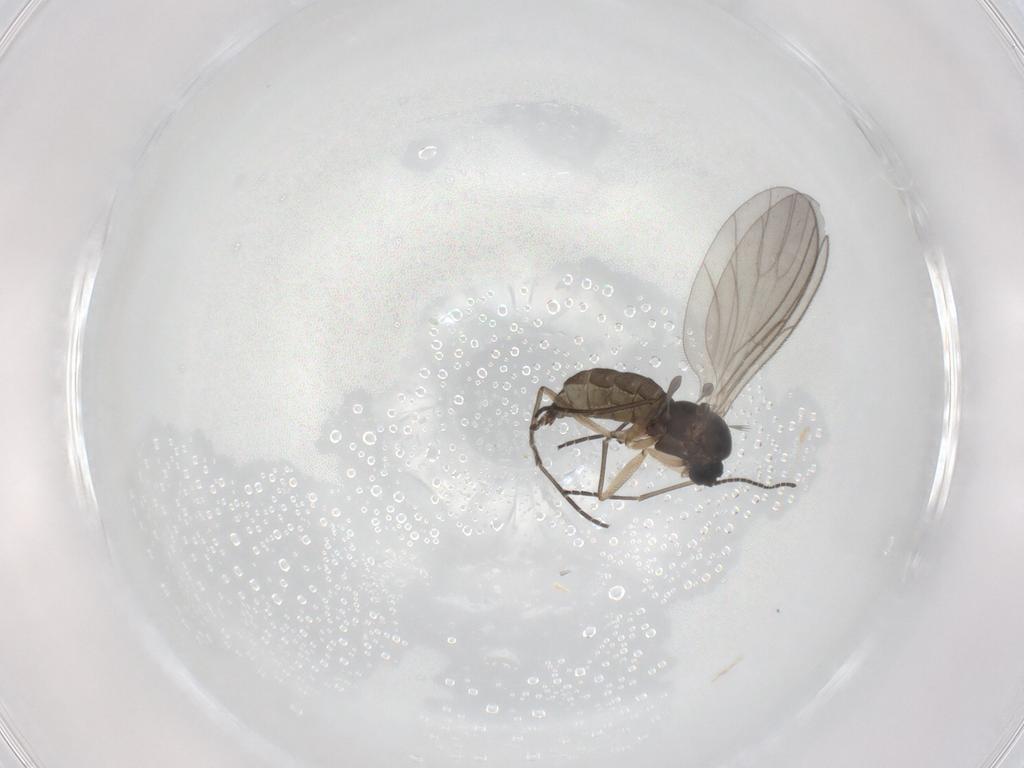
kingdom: Animalia
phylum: Arthropoda
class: Insecta
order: Diptera
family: Sciaridae
